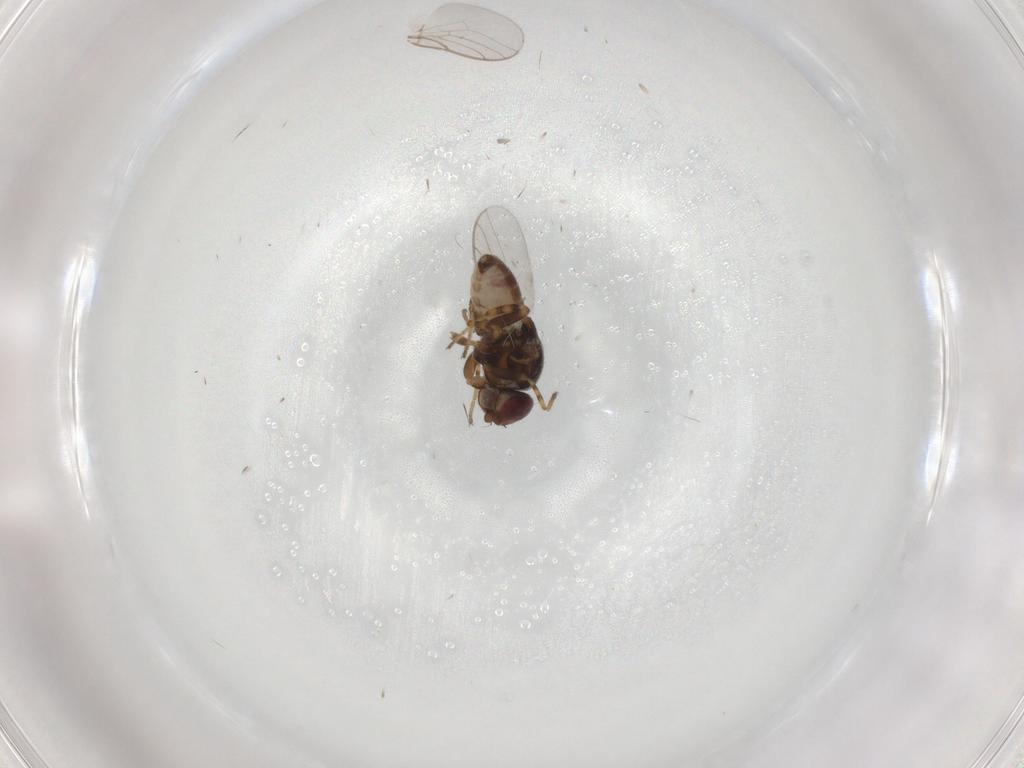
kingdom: Animalia
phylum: Arthropoda
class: Insecta
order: Diptera
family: Chloropidae
